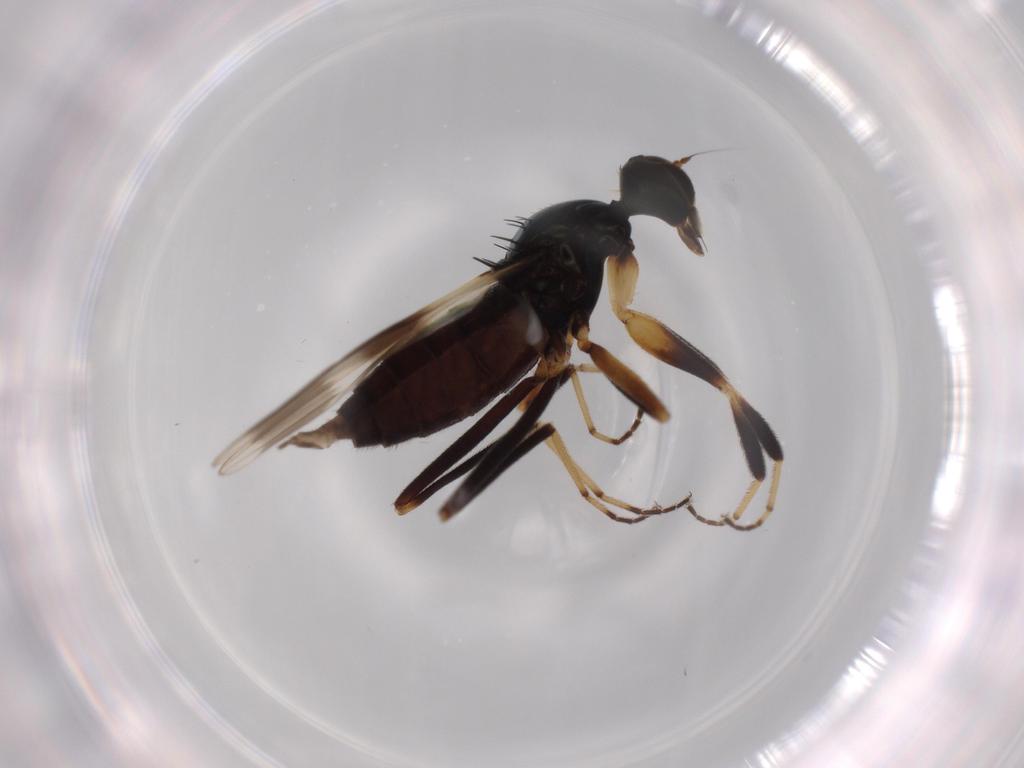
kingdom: Animalia
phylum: Arthropoda
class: Insecta
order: Diptera
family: Hybotidae
